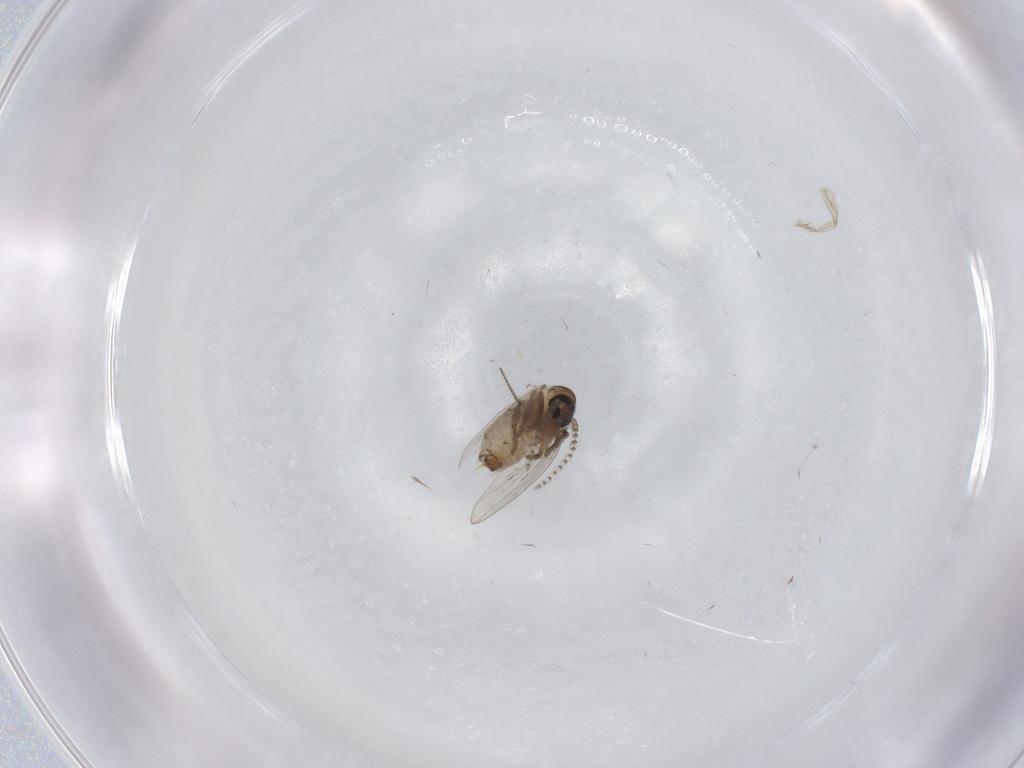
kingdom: Animalia
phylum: Arthropoda
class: Insecta
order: Diptera
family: Psychodidae
